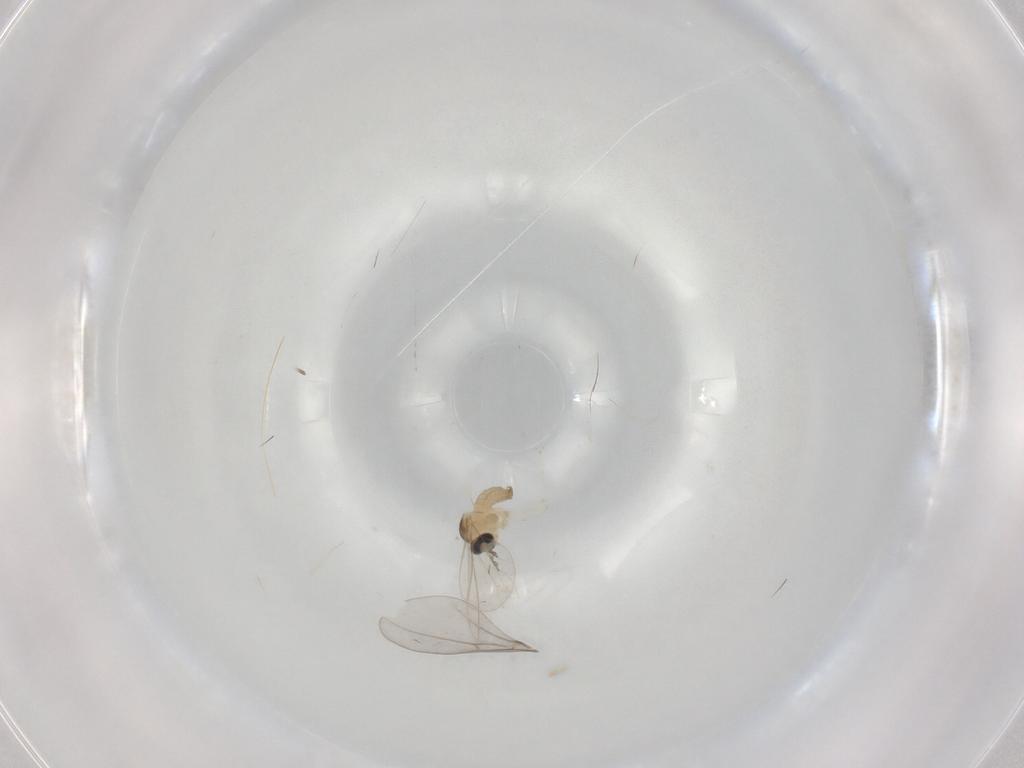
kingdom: Animalia
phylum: Arthropoda
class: Insecta
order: Diptera
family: Cecidomyiidae
